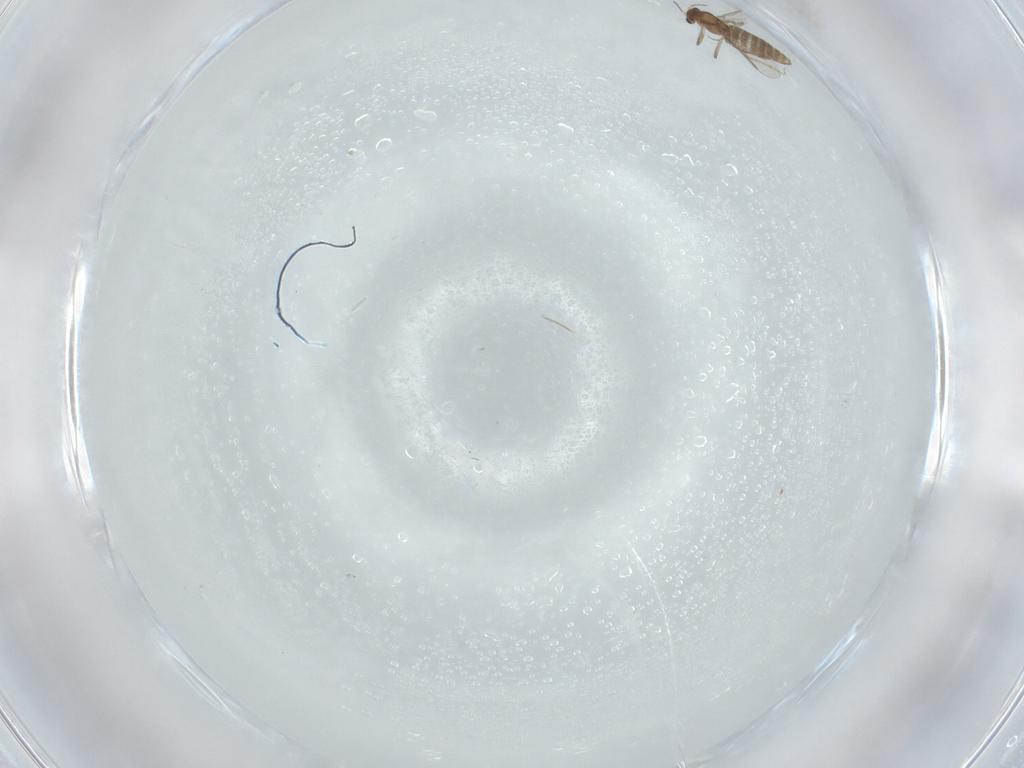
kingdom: Animalia
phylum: Arthropoda
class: Insecta
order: Diptera
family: Chironomidae
